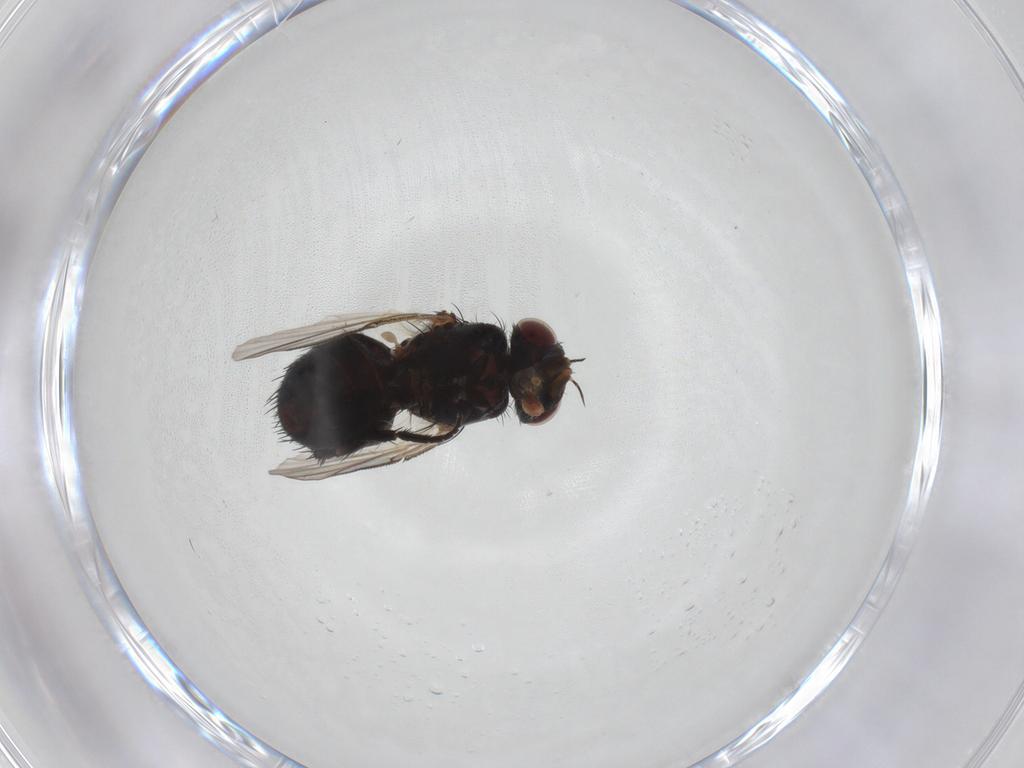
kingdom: Animalia
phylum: Arthropoda
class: Insecta
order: Diptera
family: Tachinidae
